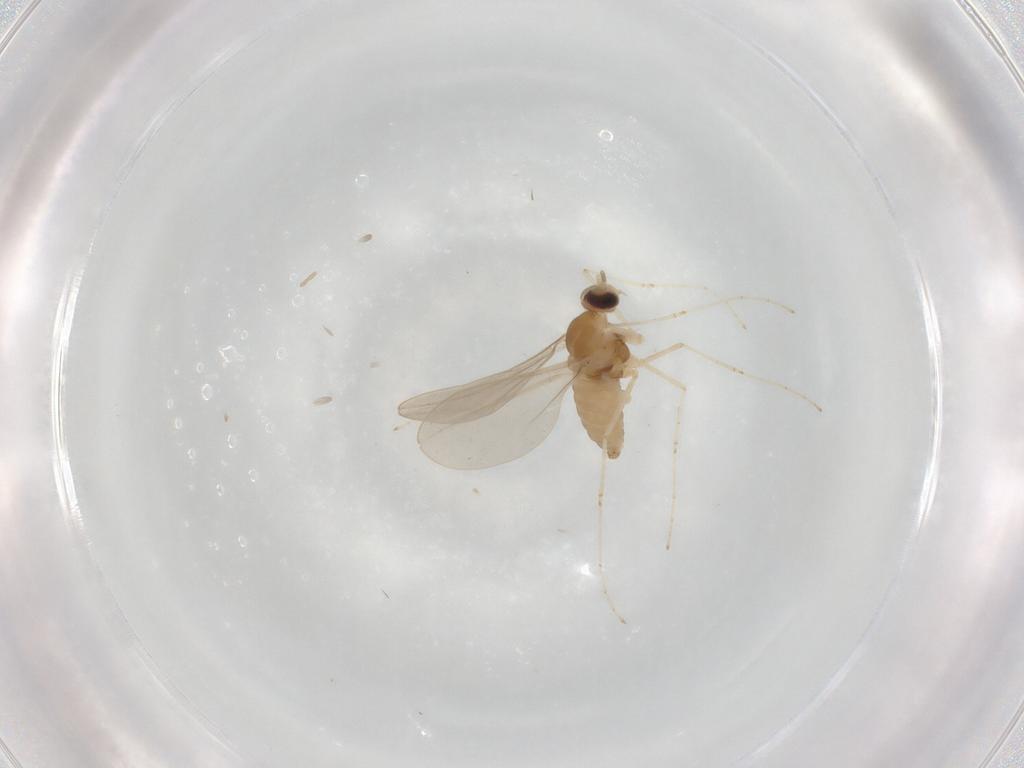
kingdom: Animalia
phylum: Arthropoda
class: Insecta
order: Diptera
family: Cecidomyiidae
